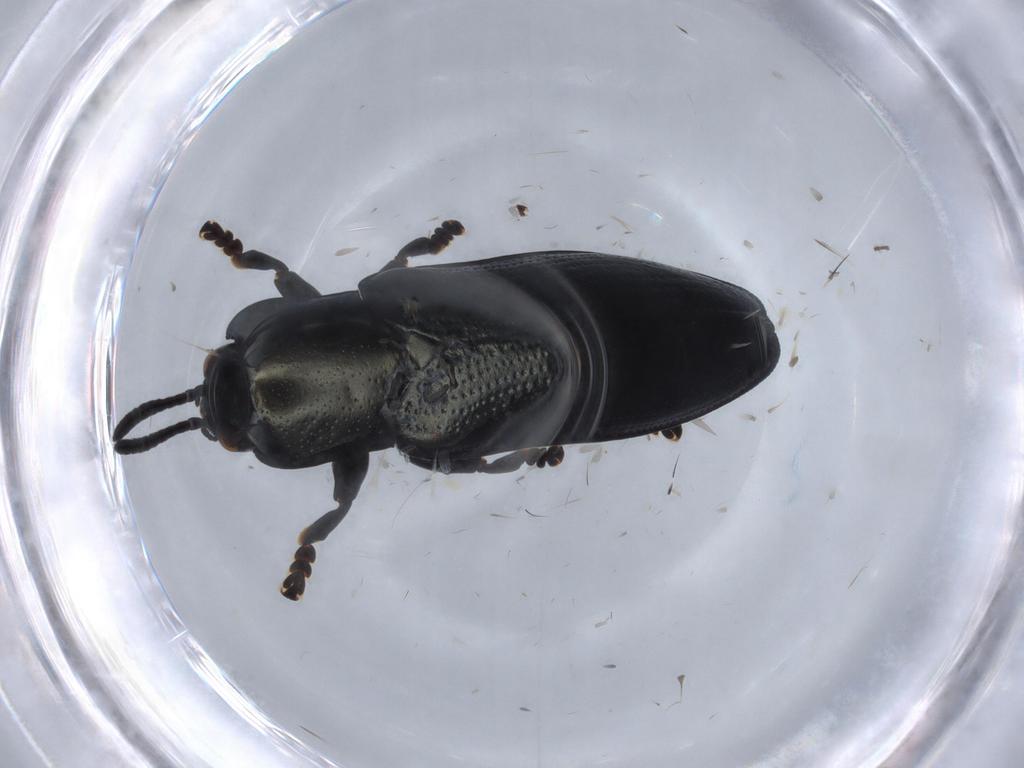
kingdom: Animalia
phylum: Arthropoda
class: Insecta
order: Coleoptera
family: Chrysomelidae
